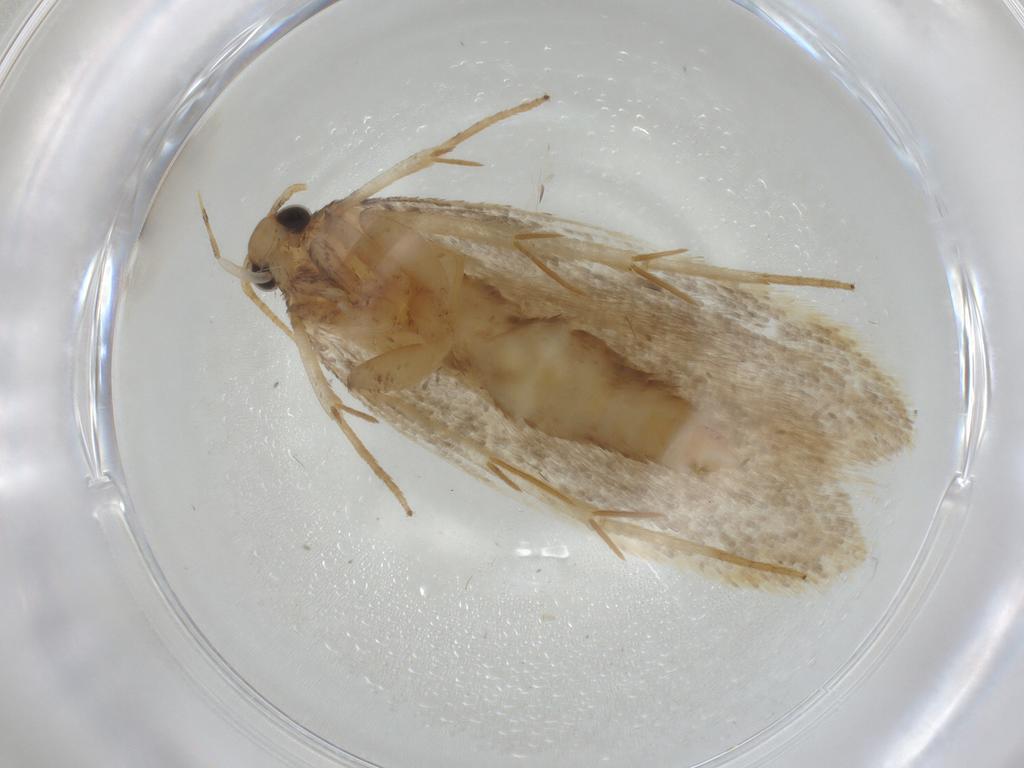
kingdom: Animalia
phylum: Arthropoda
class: Insecta
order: Lepidoptera
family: Gelechiidae
